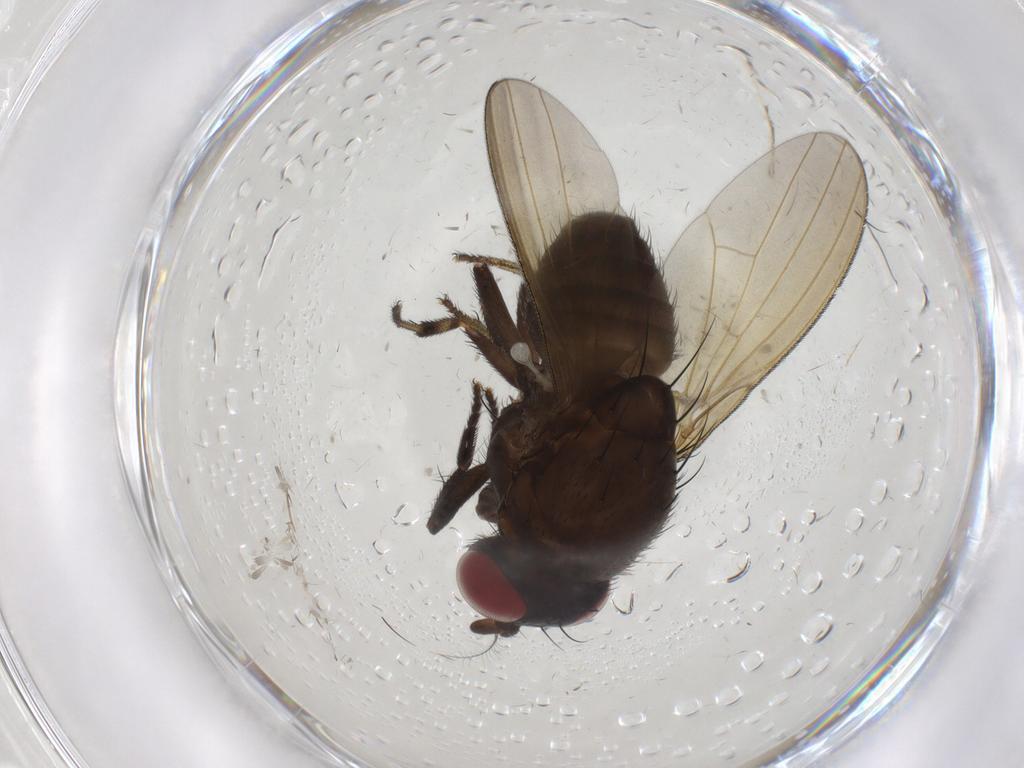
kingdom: Animalia
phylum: Arthropoda
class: Insecta
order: Diptera
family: Lauxaniidae
